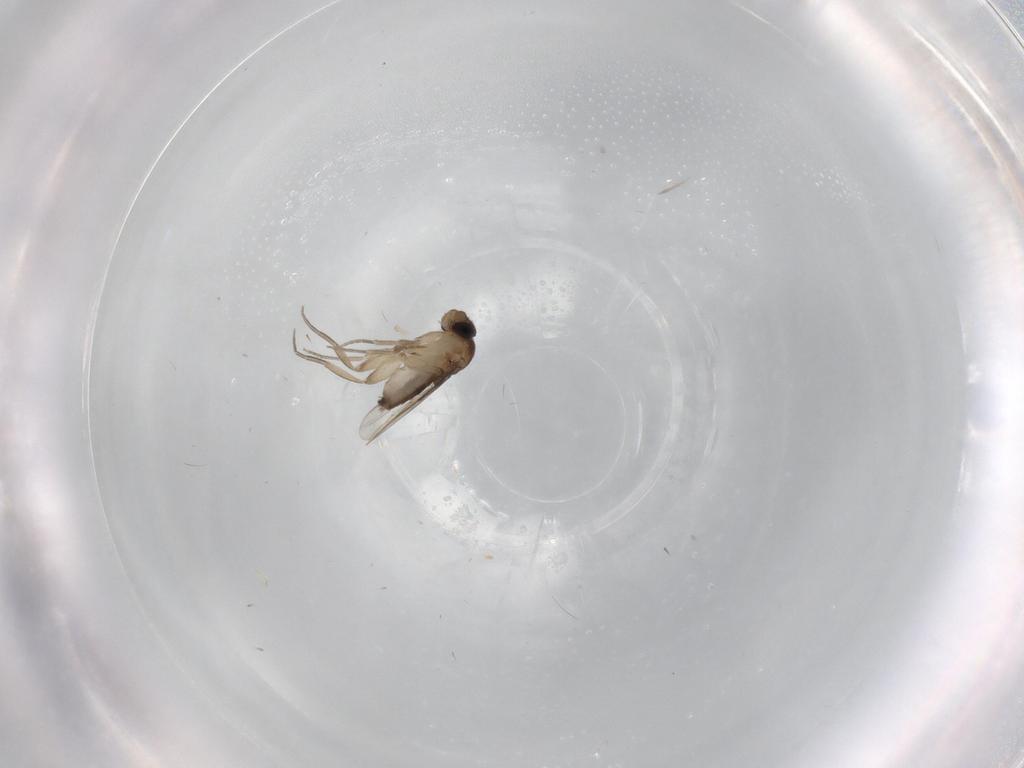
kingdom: Animalia
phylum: Arthropoda
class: Insecta
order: Diptera
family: Phoridae
